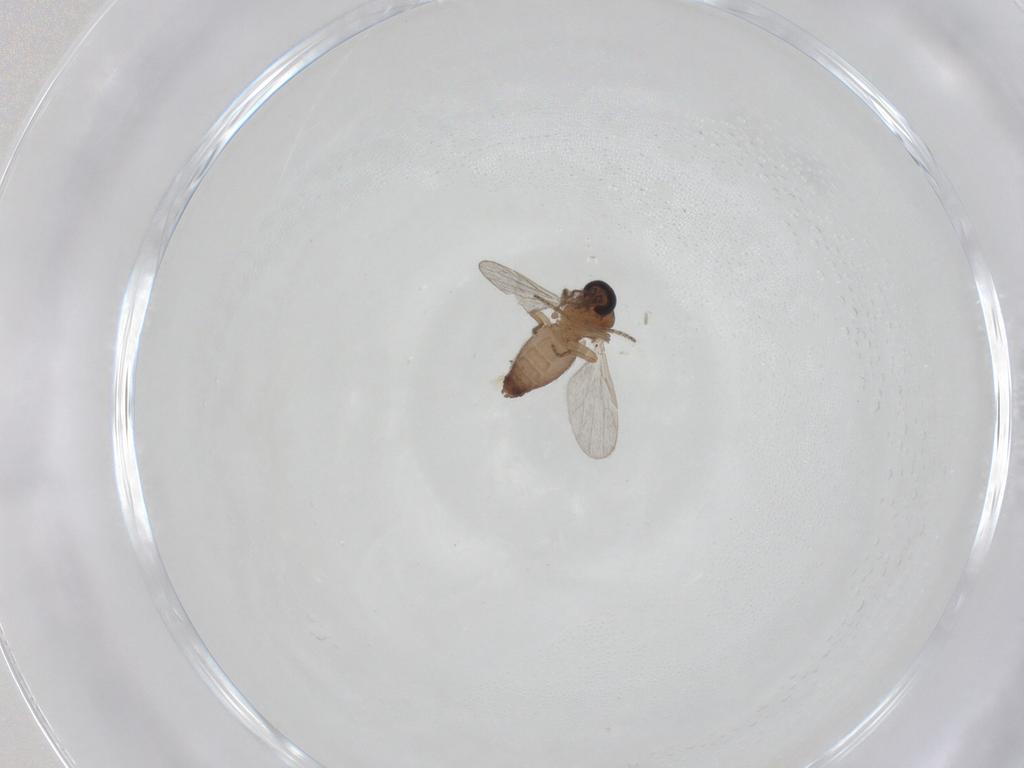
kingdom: Animalia
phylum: Arthropoda
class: Insecta
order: Diptera
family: Ceratopogonidae
